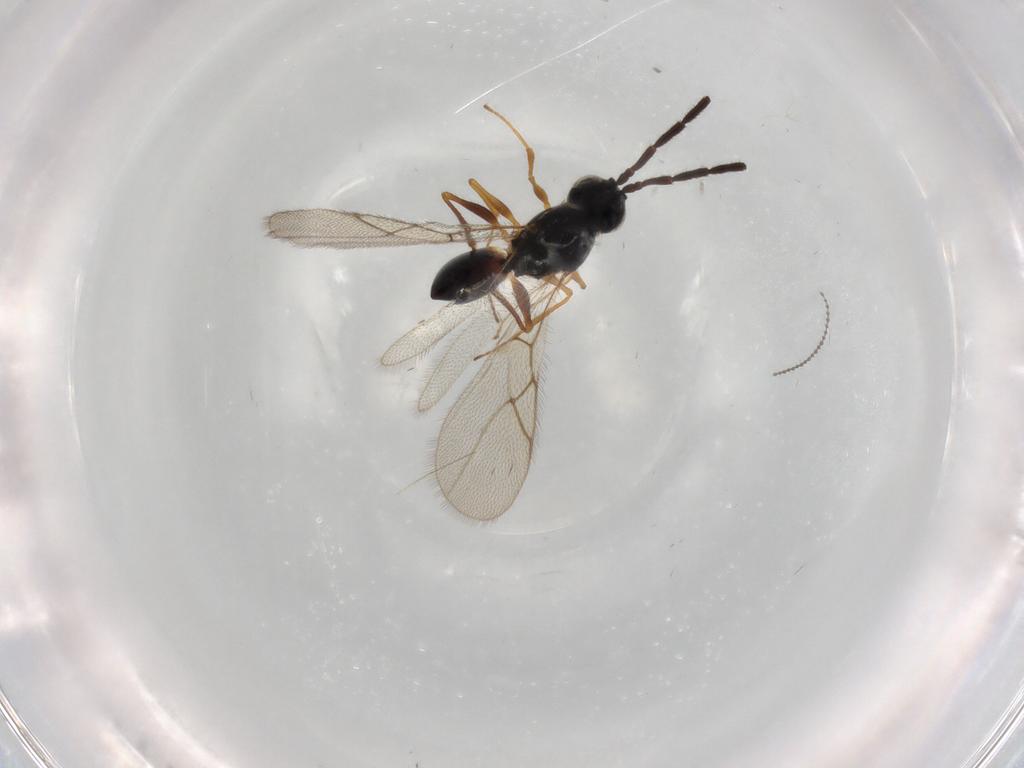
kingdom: Animalia
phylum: Arthropoda
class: Insecta
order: Hymenoptera
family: Figitidae
